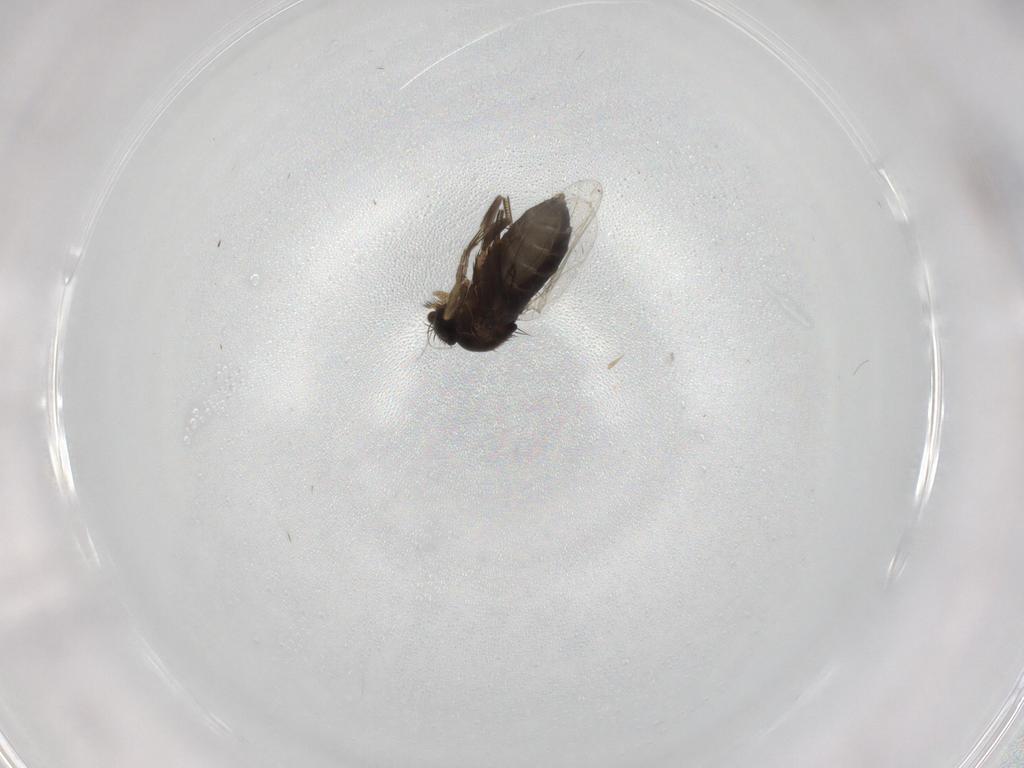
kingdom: Animalia
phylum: Arthropoda
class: Insecta
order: Diptera
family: Phoridae
